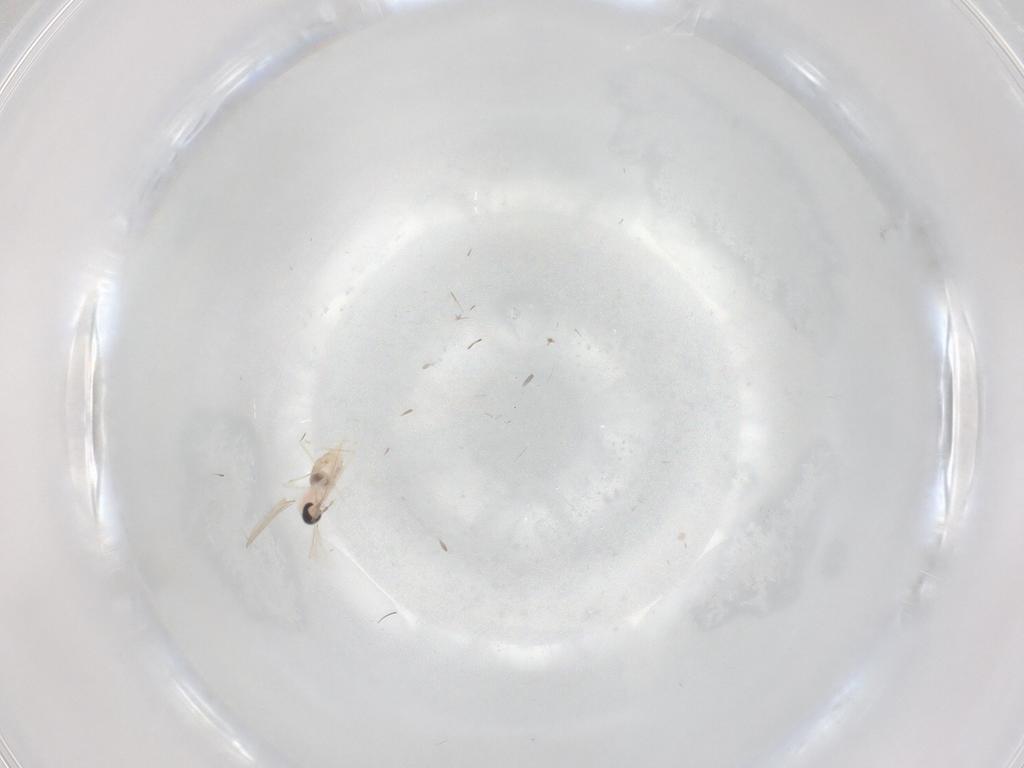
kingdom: Animalia
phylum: Arthropoda
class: Insecta
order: Diptera
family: Cecidomyiidae
